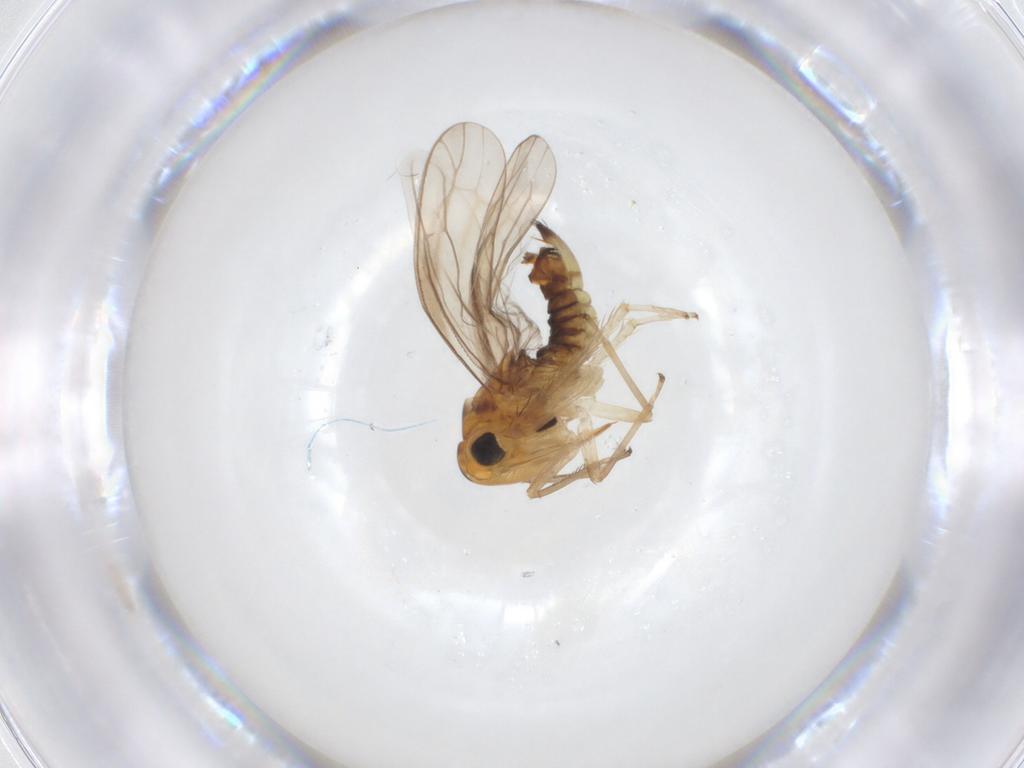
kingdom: Animalia
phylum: Arthropoda
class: Insecta
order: Hemiptera
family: Cicadellidae
